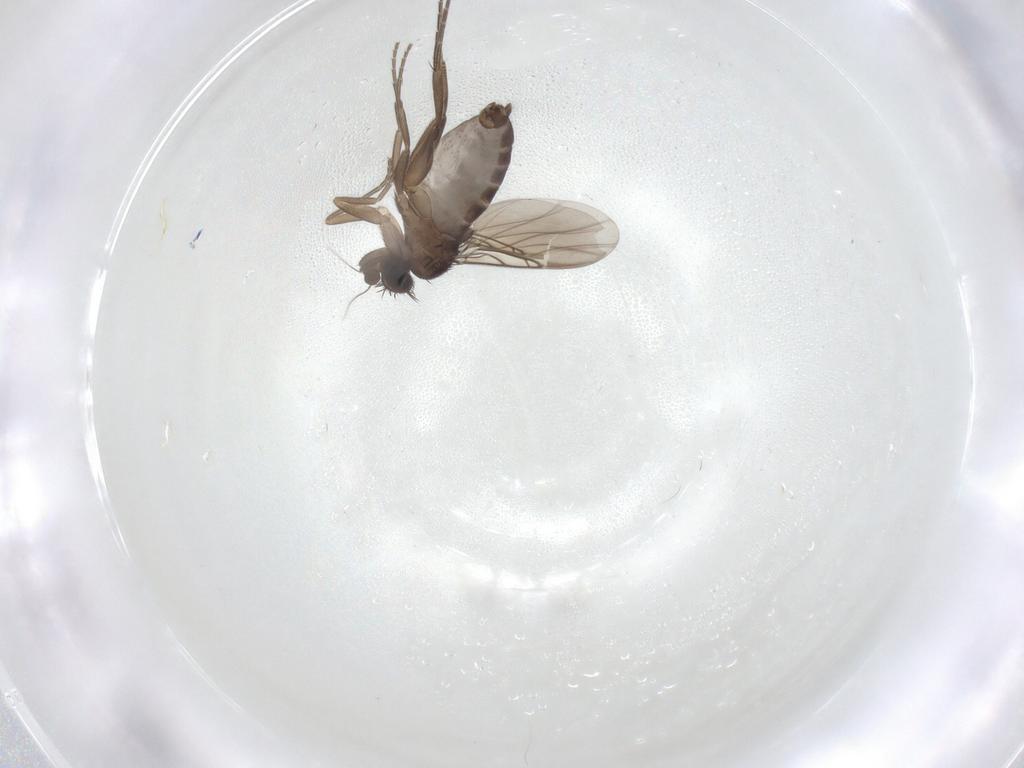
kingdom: Animalia
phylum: Arthropoda
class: Insecta
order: Diptera
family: Phoridae
